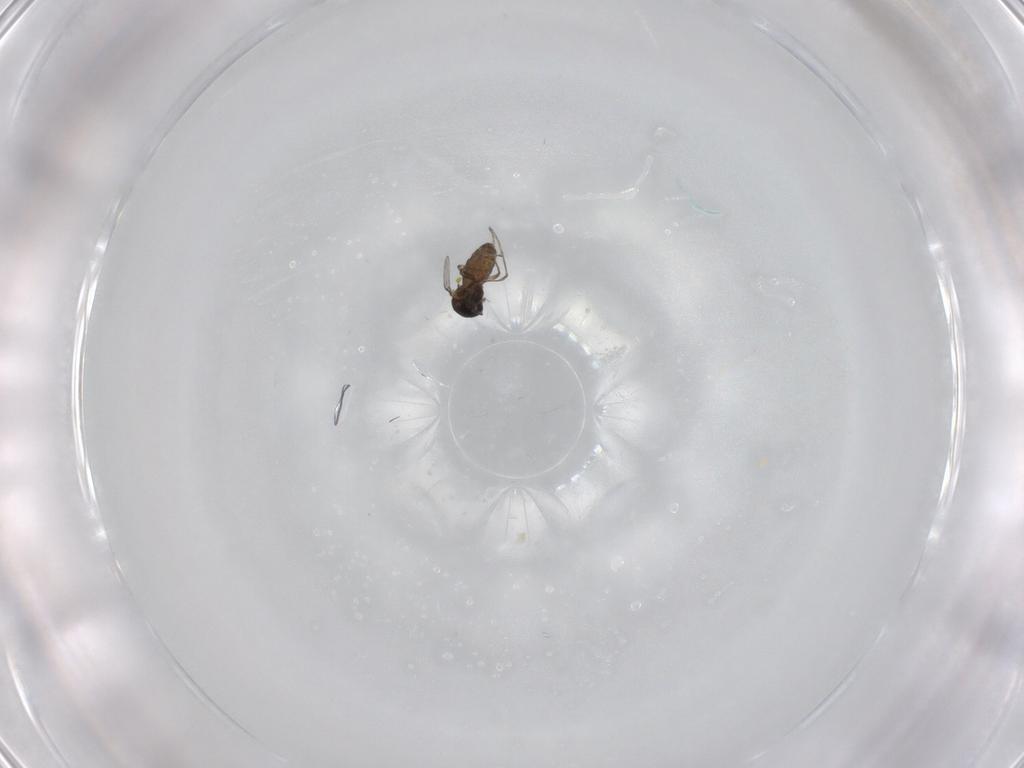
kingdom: Animalia
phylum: Arthropoda
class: Insecta
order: Diptera
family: Ceratopogonidae
